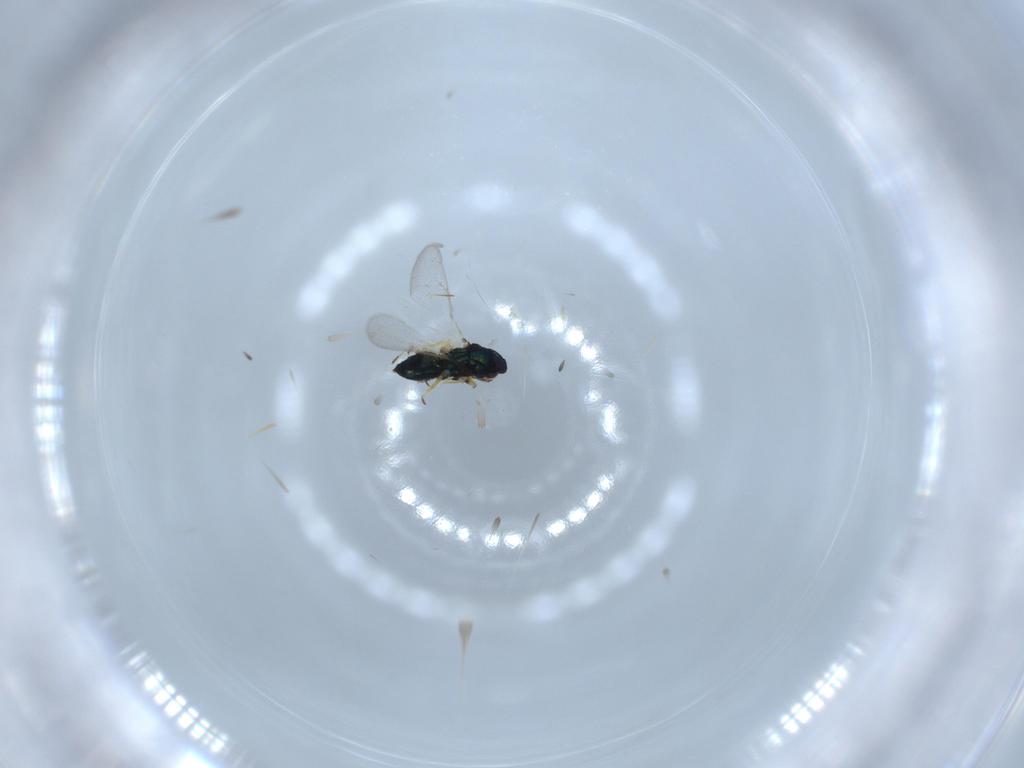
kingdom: Animalia
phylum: Arthropoda
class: Insecta
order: Hymenoptera
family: Eulophidae
